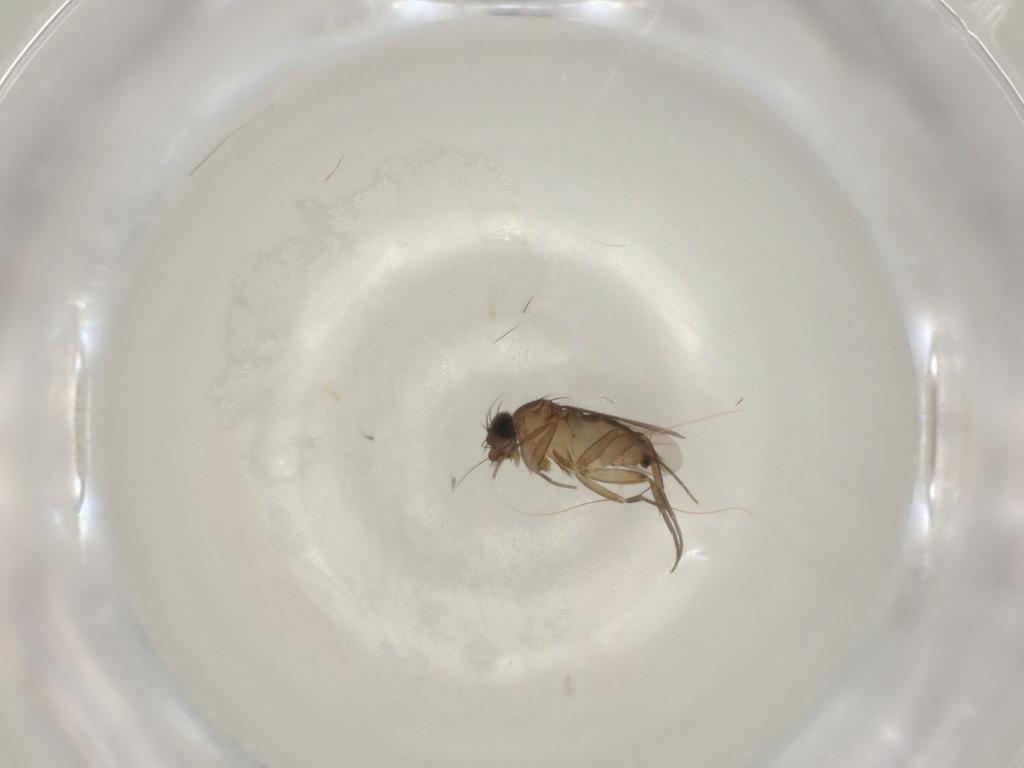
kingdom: Animalia
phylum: Arthropoda
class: Insecta
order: Diptera
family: Phoridae
